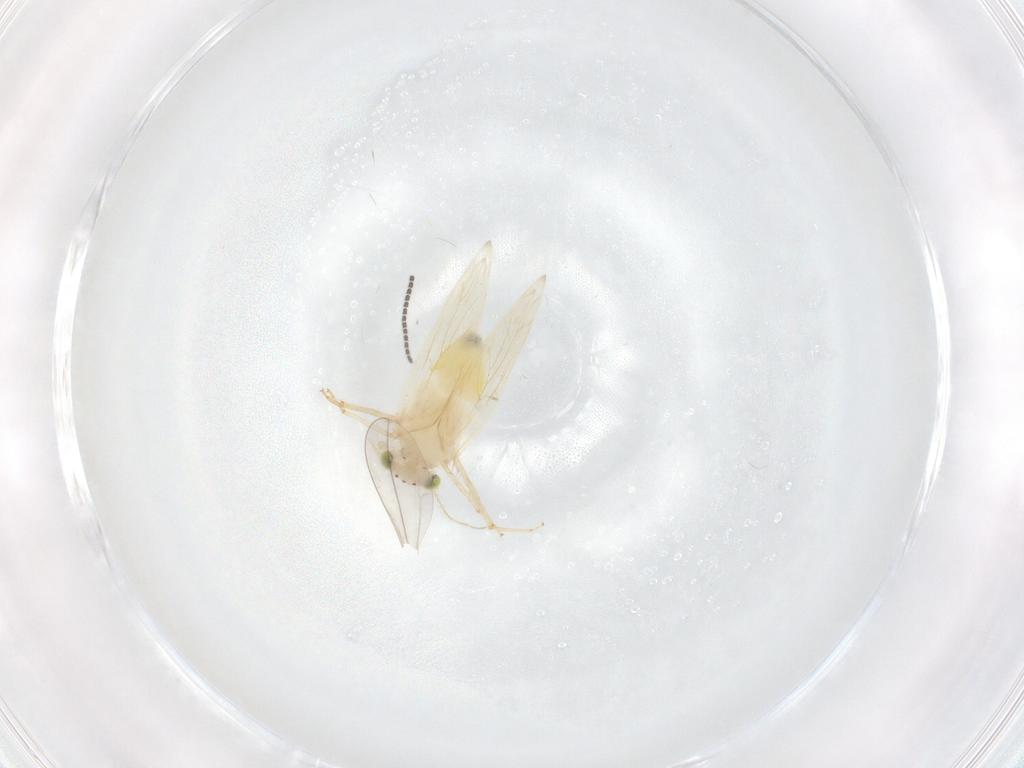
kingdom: Animalia
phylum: Arthropoda
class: Insecta
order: Psocodea
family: Lepidopsocidae
